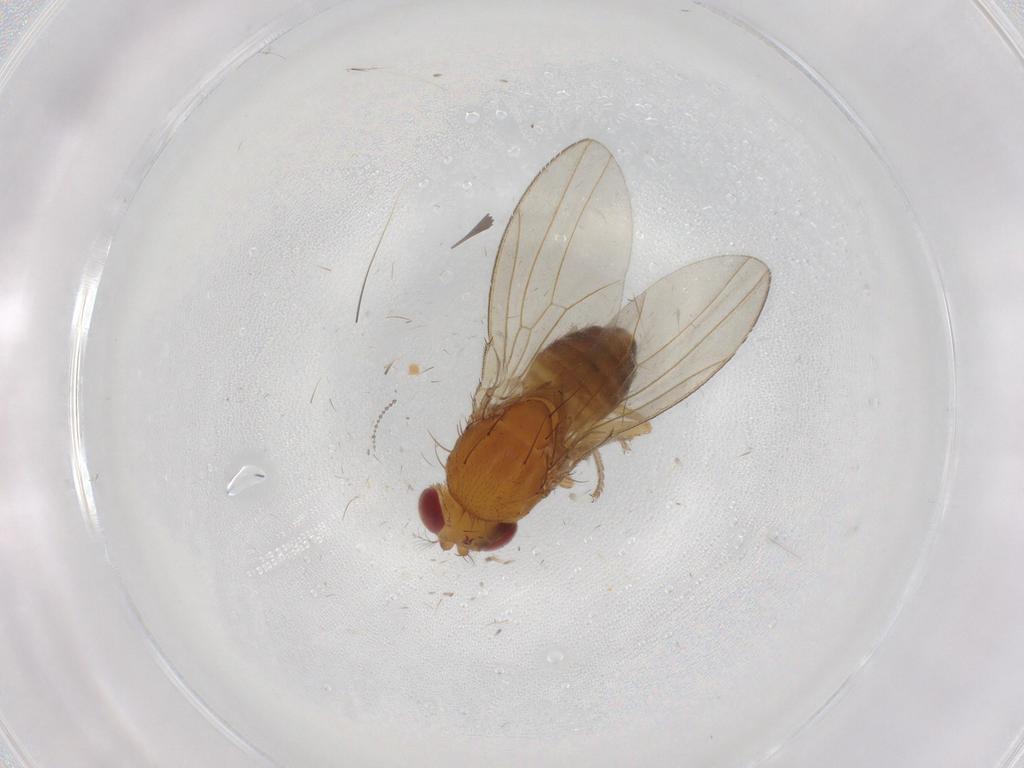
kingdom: Animalia
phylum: Arthropoda
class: Insecta
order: Diptera
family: Drosophilidae
